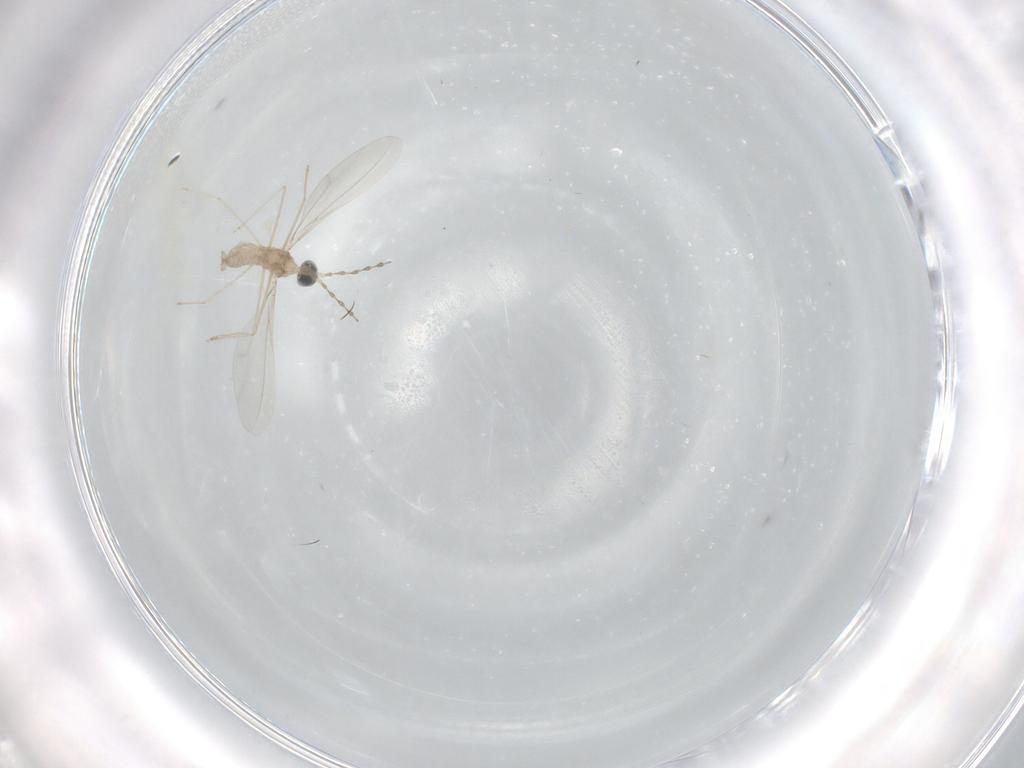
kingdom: Animalia
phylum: Arthropoda
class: Insecta
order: Diptera
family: Cecidomyiidae
